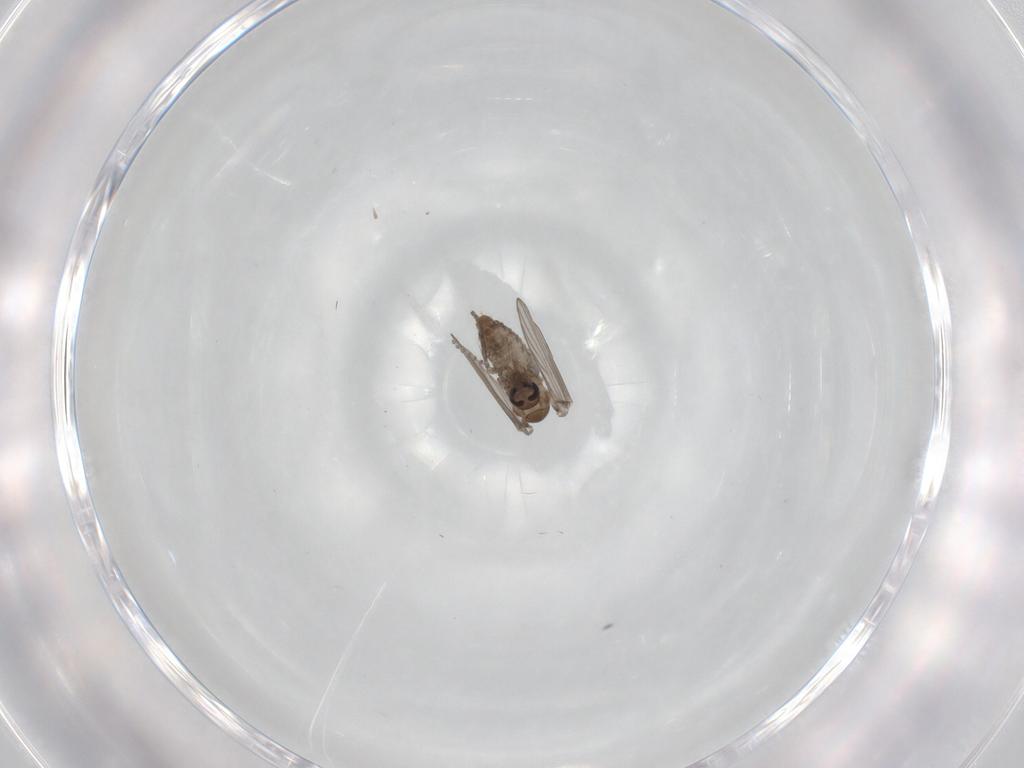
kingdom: Animalia
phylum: Arthropoda
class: Insecta
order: Diptera
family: Psychodidae
